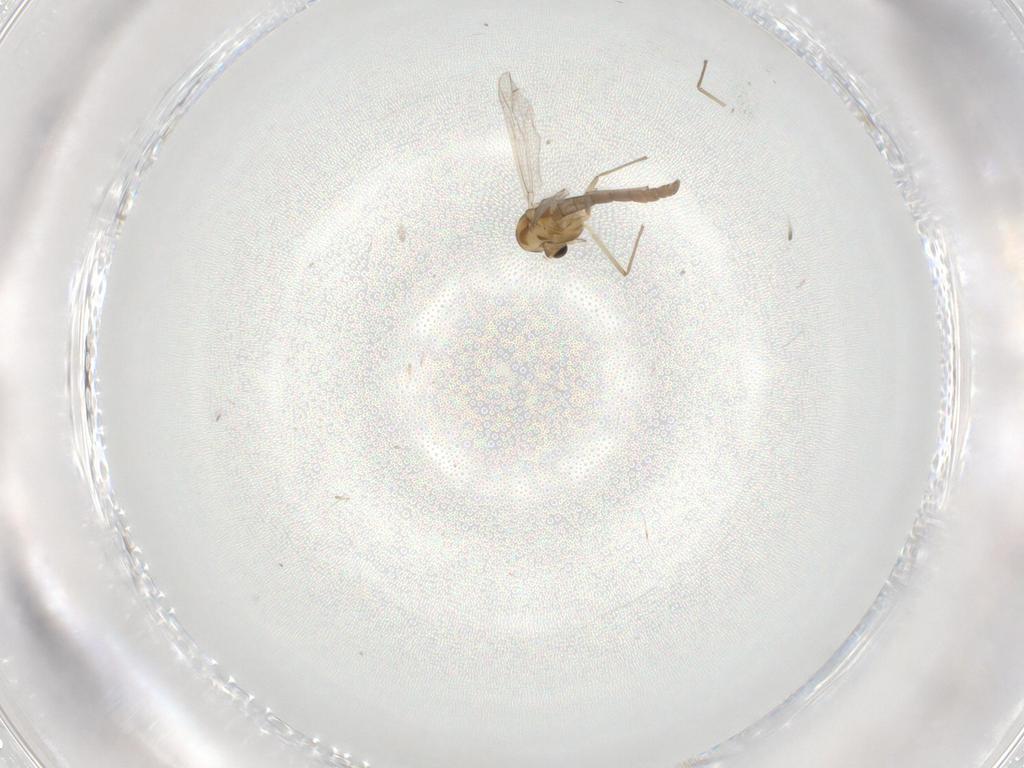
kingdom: Animalia
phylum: Arthropoda
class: Insecta
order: Diptera
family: Chironomidae
